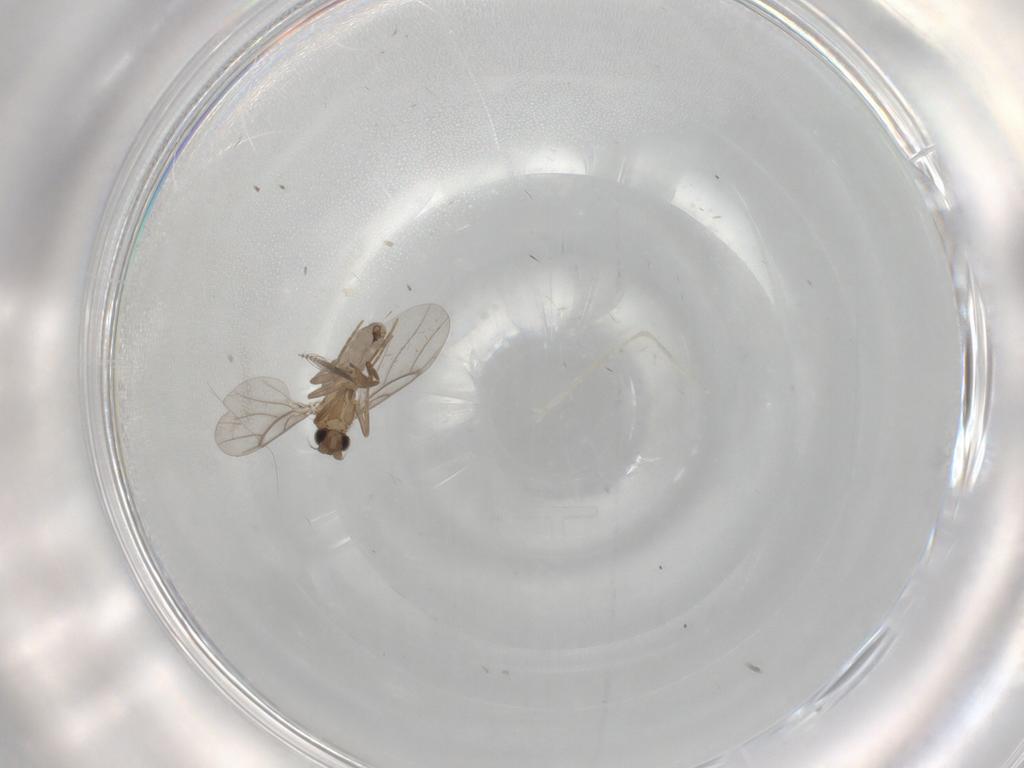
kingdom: Animalia
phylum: Arthropoda
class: Insecta
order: Diptera
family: Ceratopogonidae
